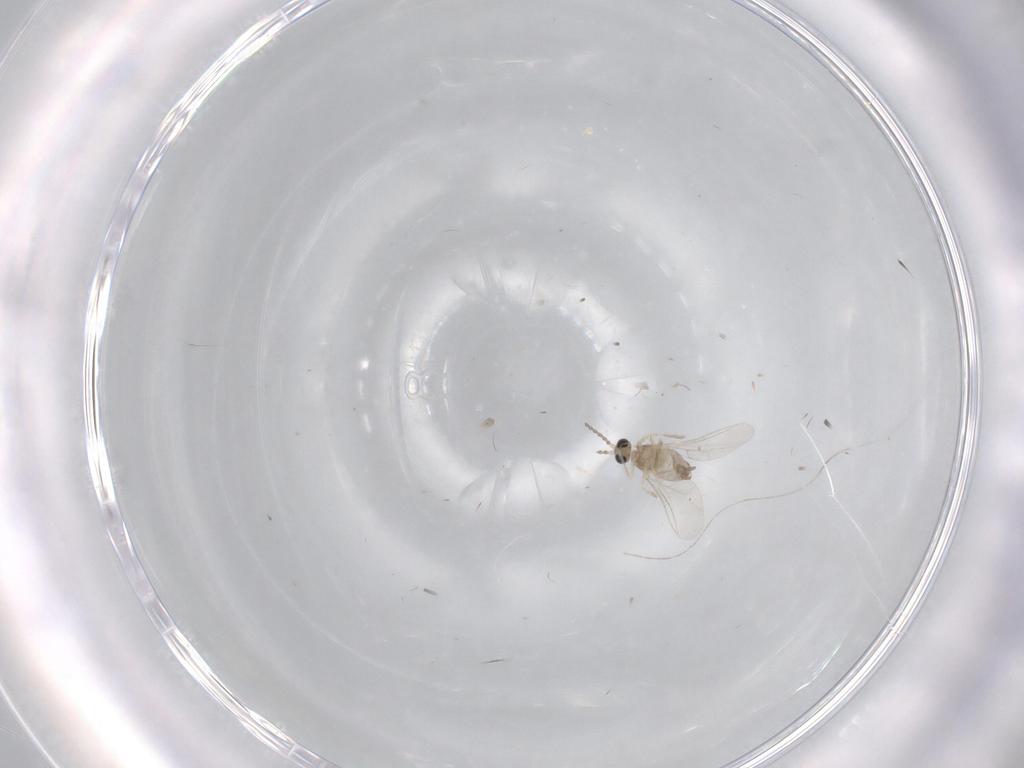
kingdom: Animalia
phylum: Arthropoda
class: Insecta
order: Diptera
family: Cecidomyiidae
